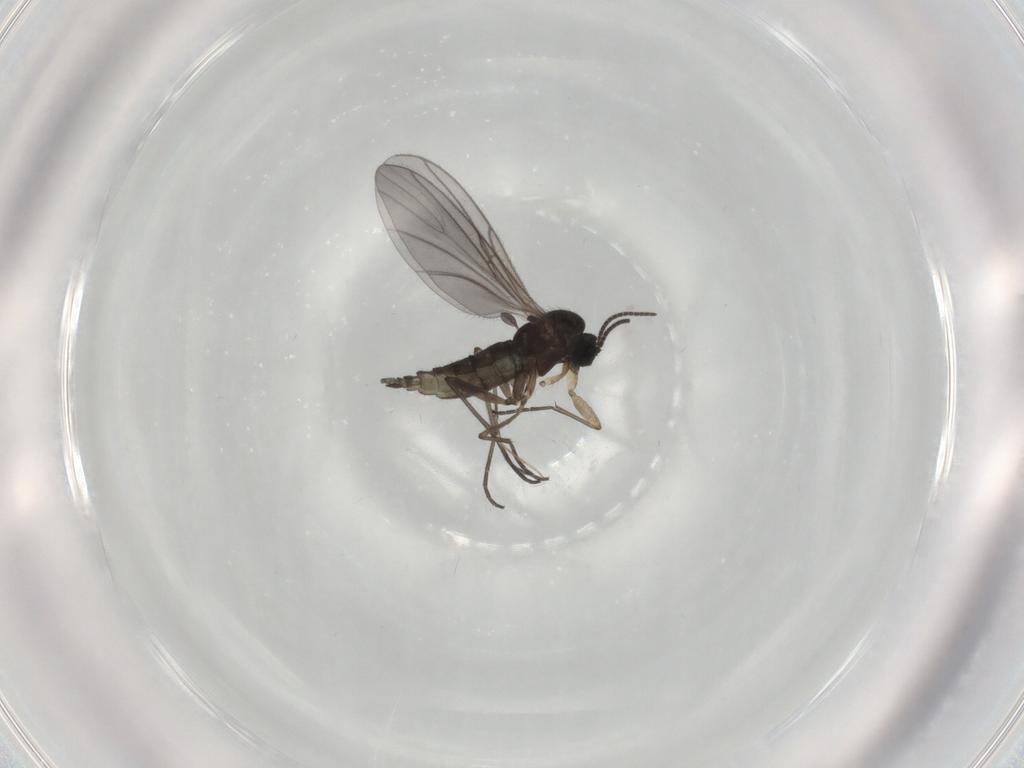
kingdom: Animalia
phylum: Arthropoda
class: Insecta
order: Diptera
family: Sciaridae
